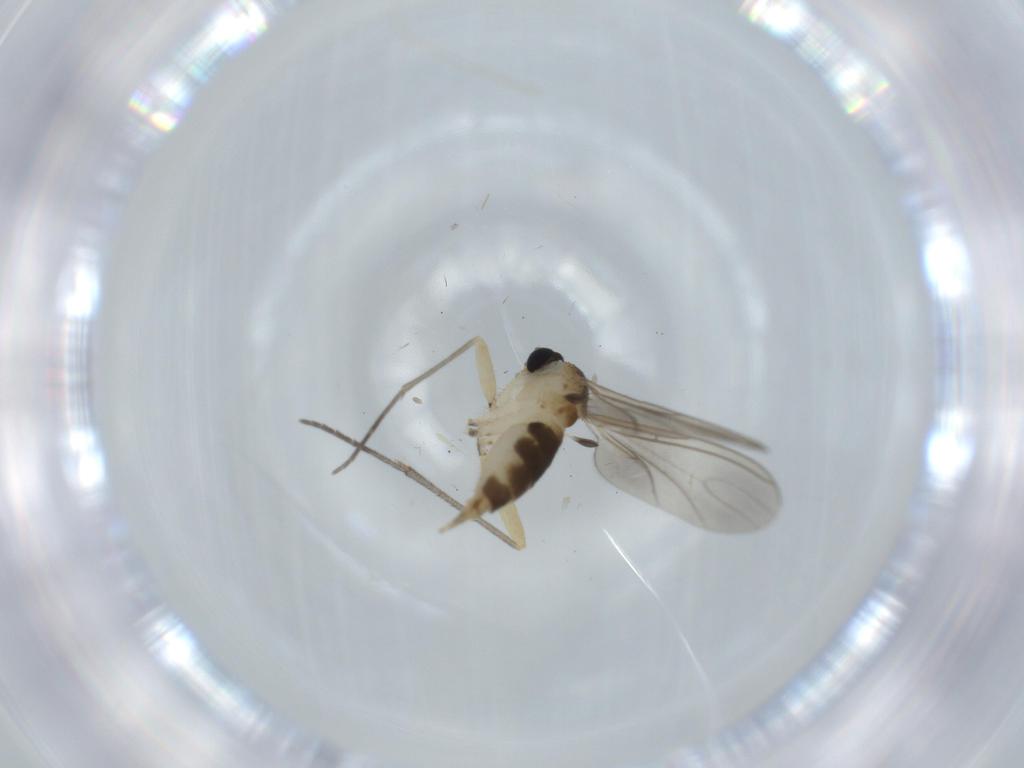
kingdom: Animalia
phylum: Arthropoda
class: Insecta
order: Diptera
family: Sciaridae
